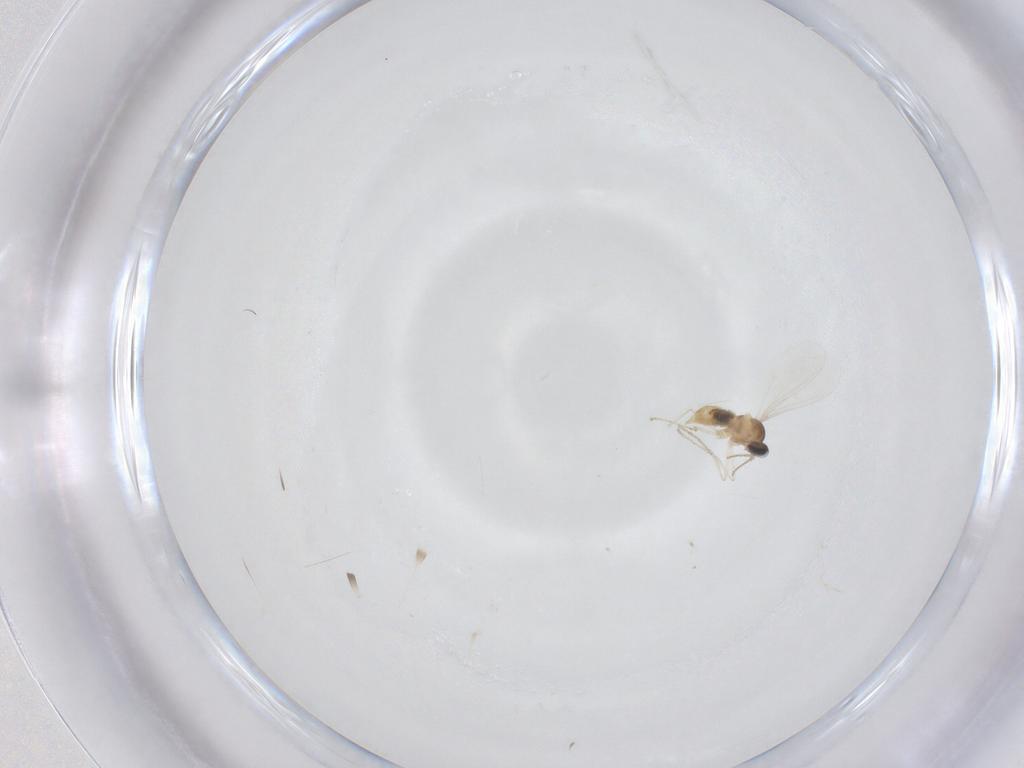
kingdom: Animalia
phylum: Arthropoda
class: Insecta
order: Diptera
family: Cecidomyiidae
